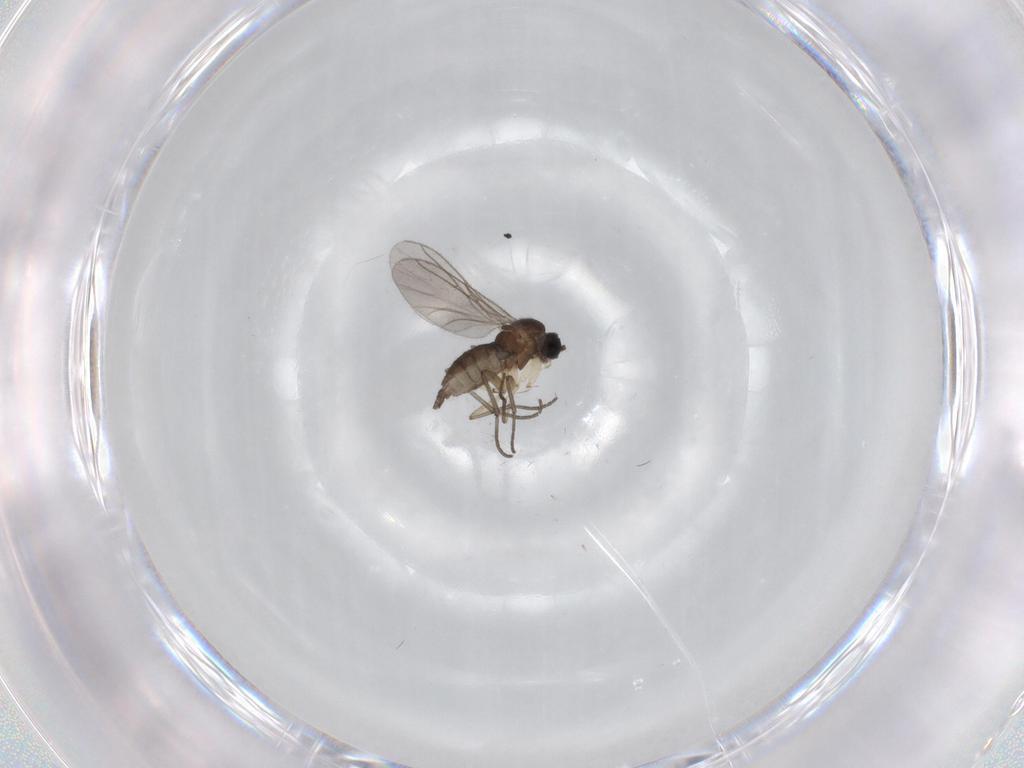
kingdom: Animalia
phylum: Arthropoda
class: Insecta
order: Diptera
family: Sciaridae
